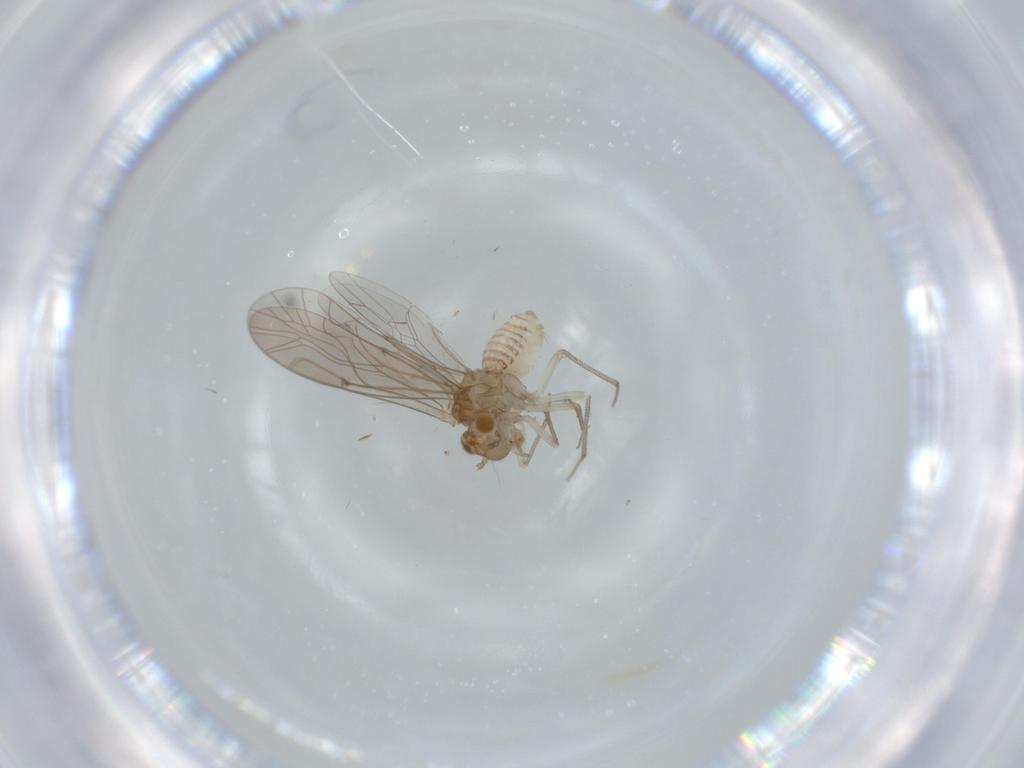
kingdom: Animalia
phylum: Arthropoda
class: Insecta
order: Psocodea
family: Lachesillidae
